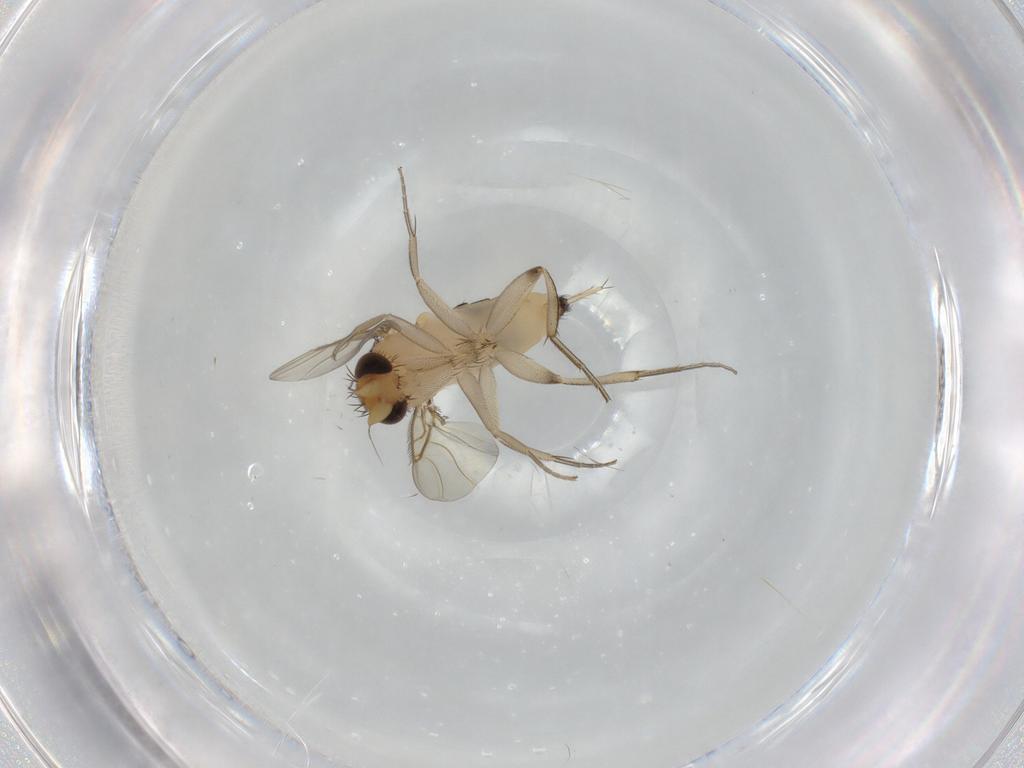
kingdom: Animalia
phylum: Arthropoda
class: Insecta
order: Diptera
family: Phoridae
